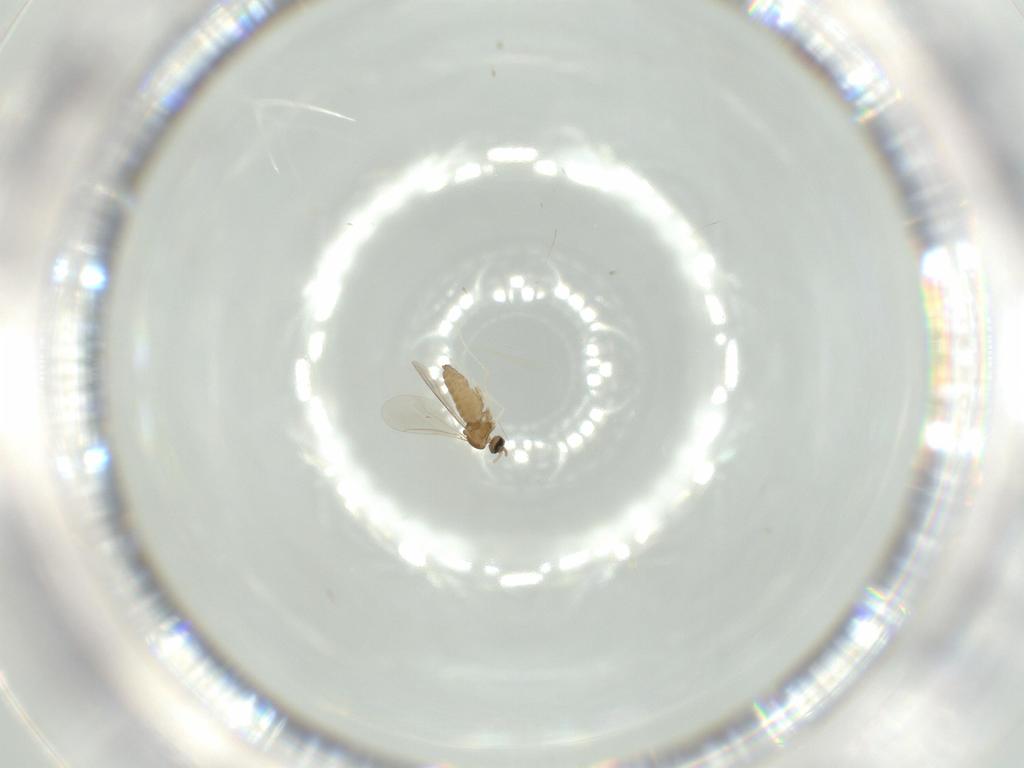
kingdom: Animalia
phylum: Arthropoda
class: Insecta
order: Diptera
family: Cecidomyiidae
